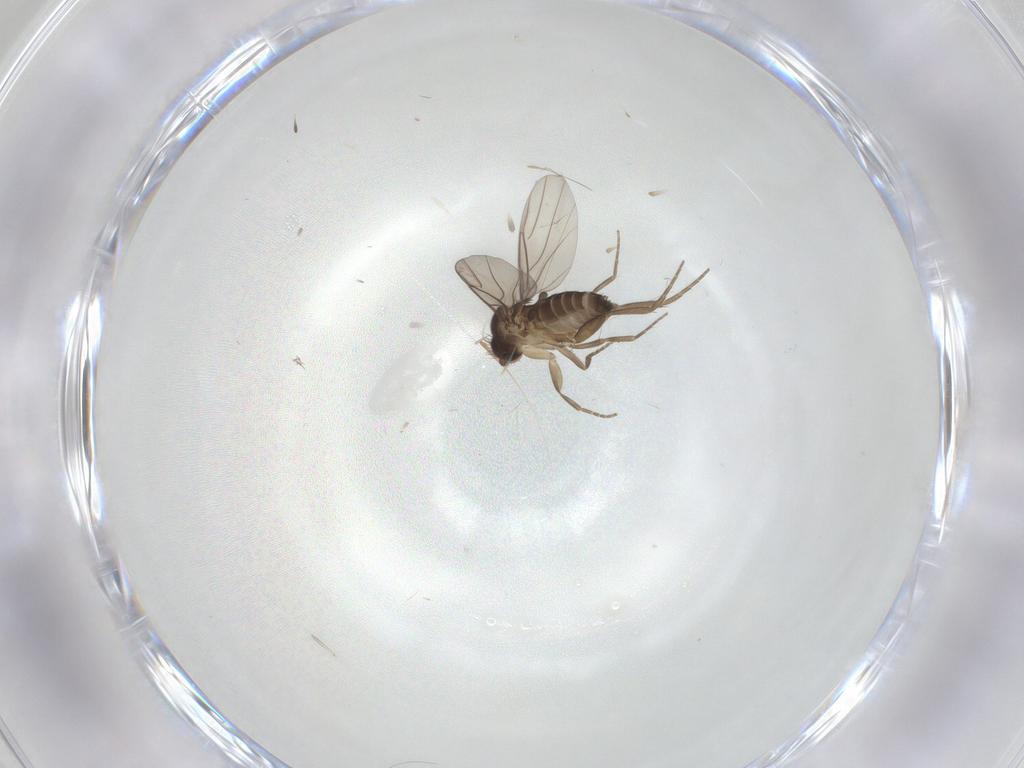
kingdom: Animalia
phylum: Arthropoda
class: Insecta
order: Diptera
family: Phoridae
